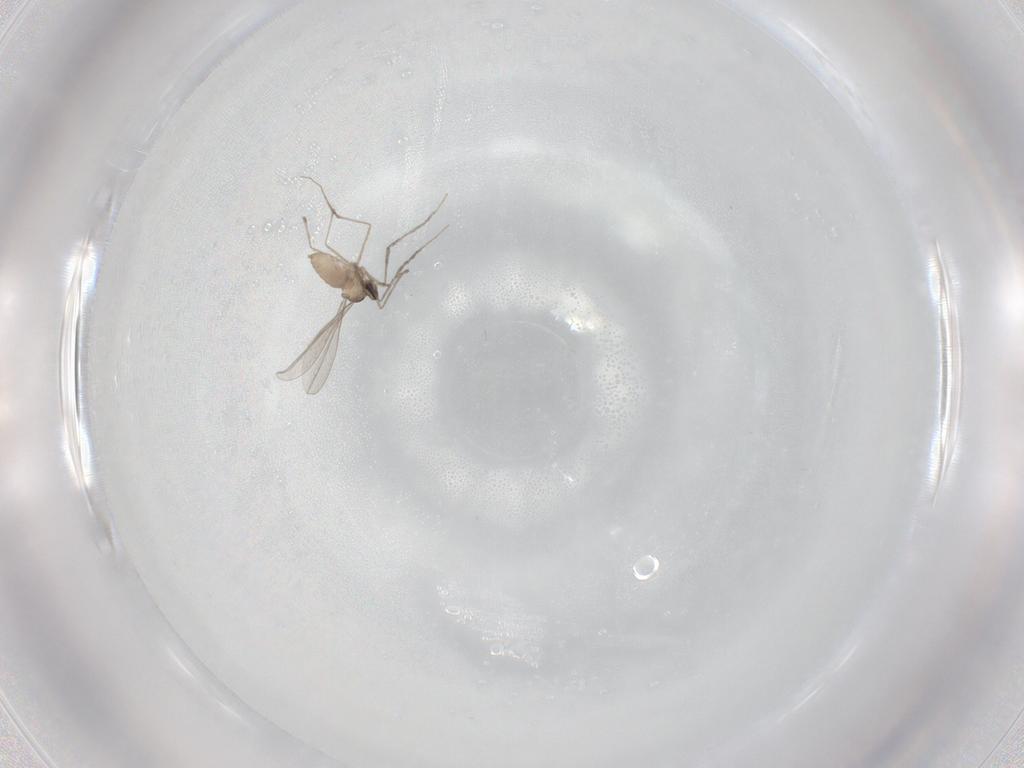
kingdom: Animalia
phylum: Arthropoda
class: Insecta
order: Diptera
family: Chironomidae
